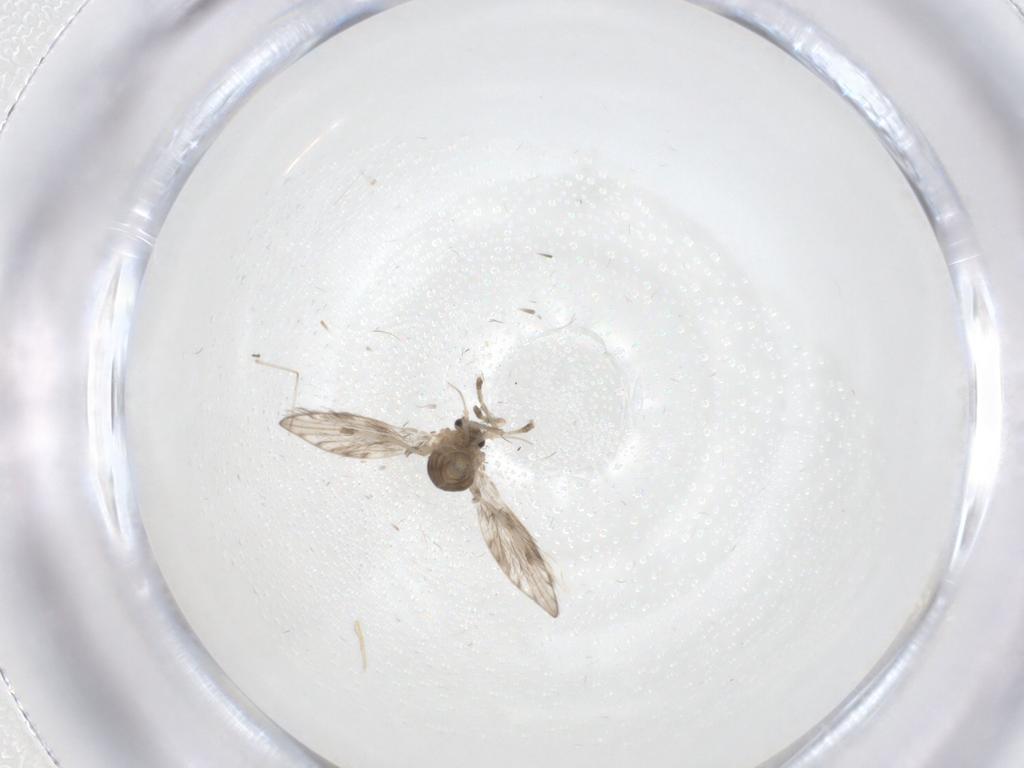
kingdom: Animalia
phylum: Arthropoda
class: Insecta
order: Diptera
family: Psychodidae
